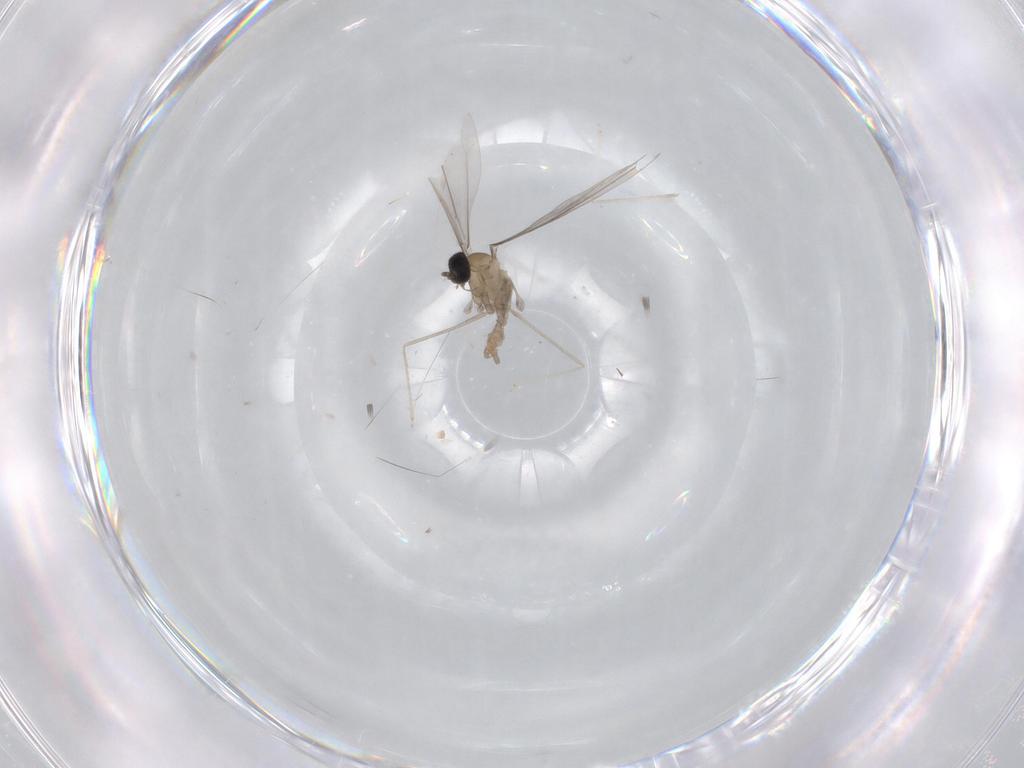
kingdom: Animalia
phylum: Arthropoda
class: Insecta
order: Diptera
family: Cecidomyiidae
